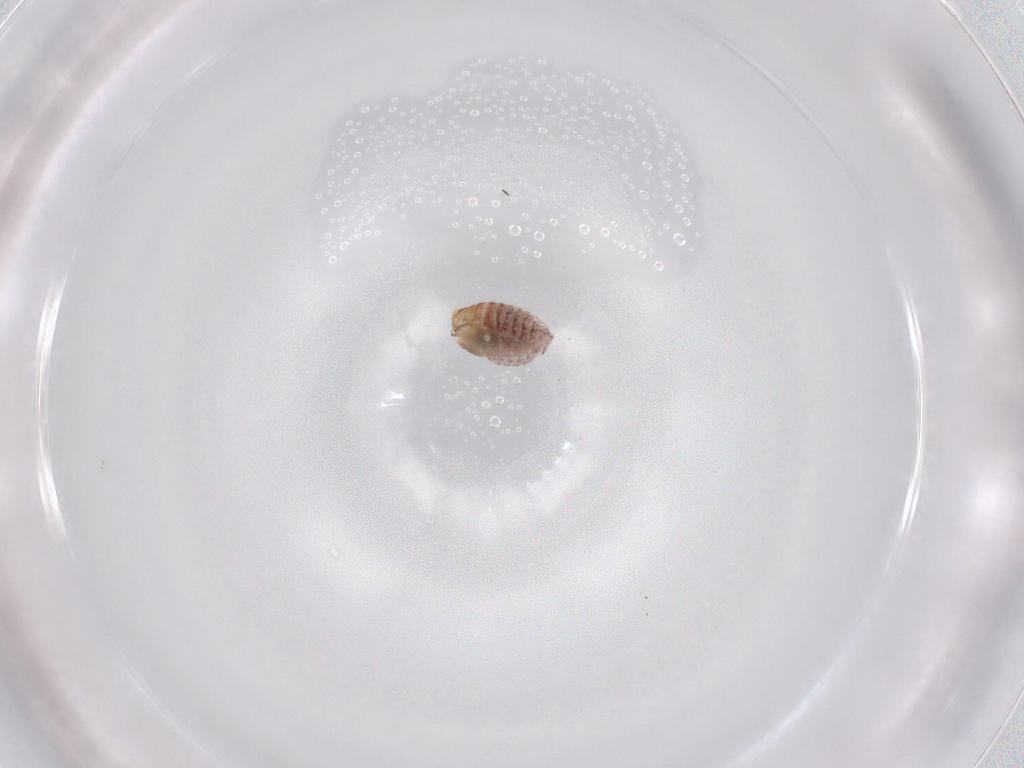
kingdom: Animalia
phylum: Arthropoda
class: Insecta
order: Psocodea
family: Lachesillidae
